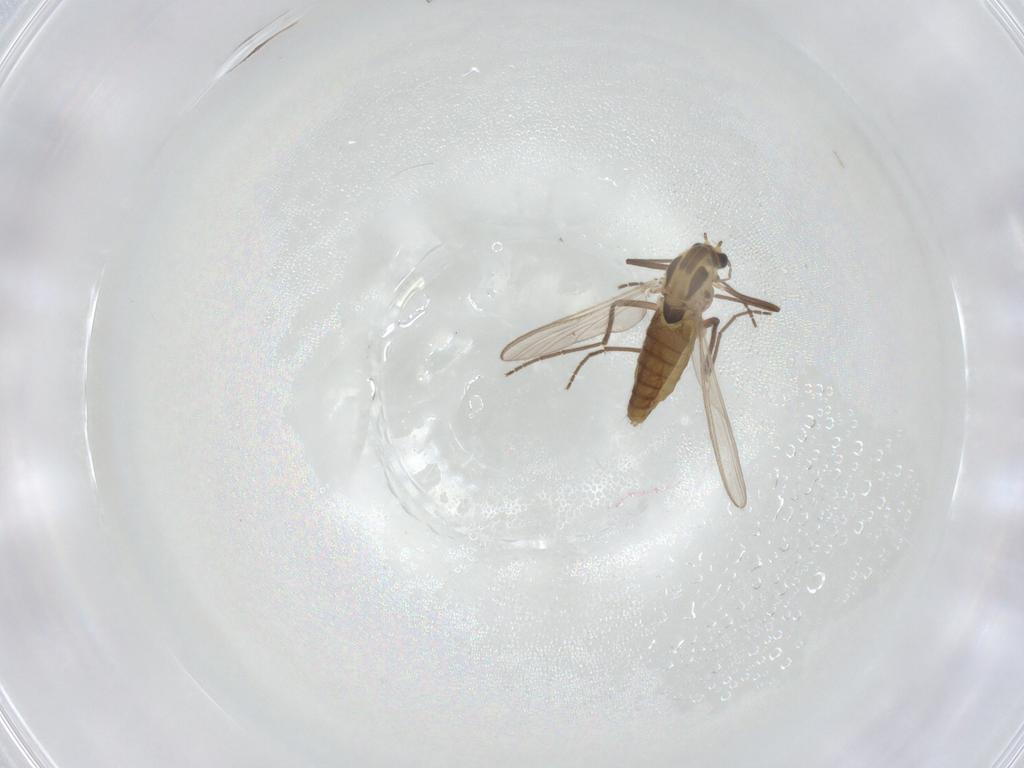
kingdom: Animalia
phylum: Arthropoda
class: Insecta
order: Diptera
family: Chironomidae
